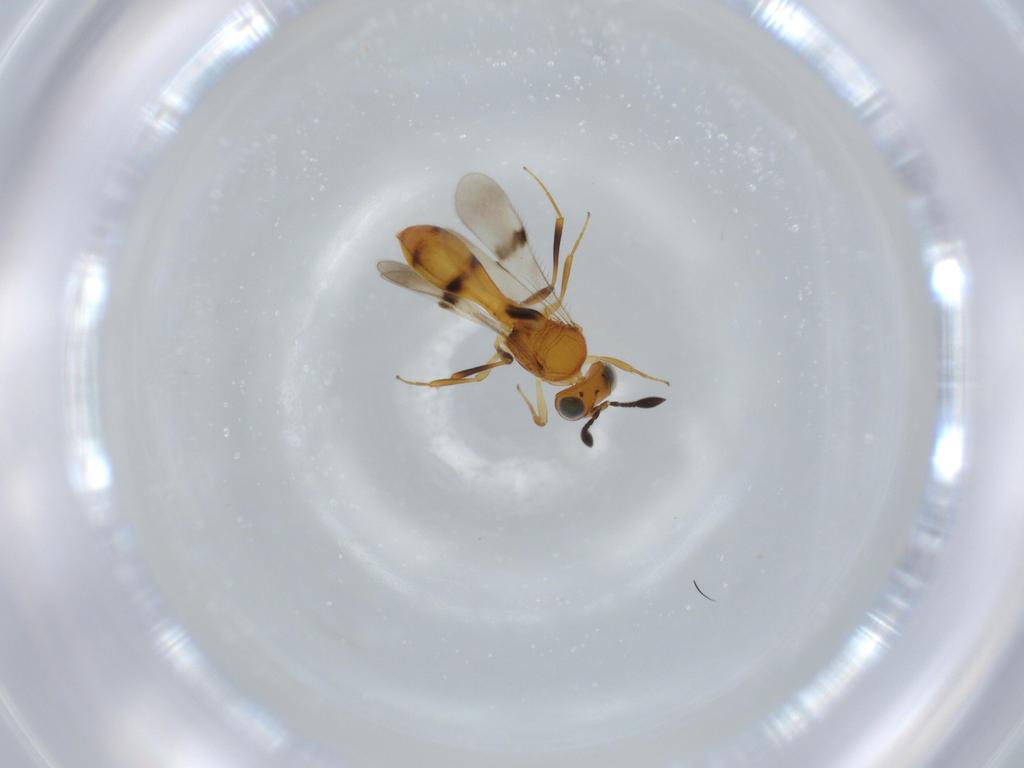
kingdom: Animalia
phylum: Arthropoda
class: Insecta
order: Hymenoptera
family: Scelionidae
